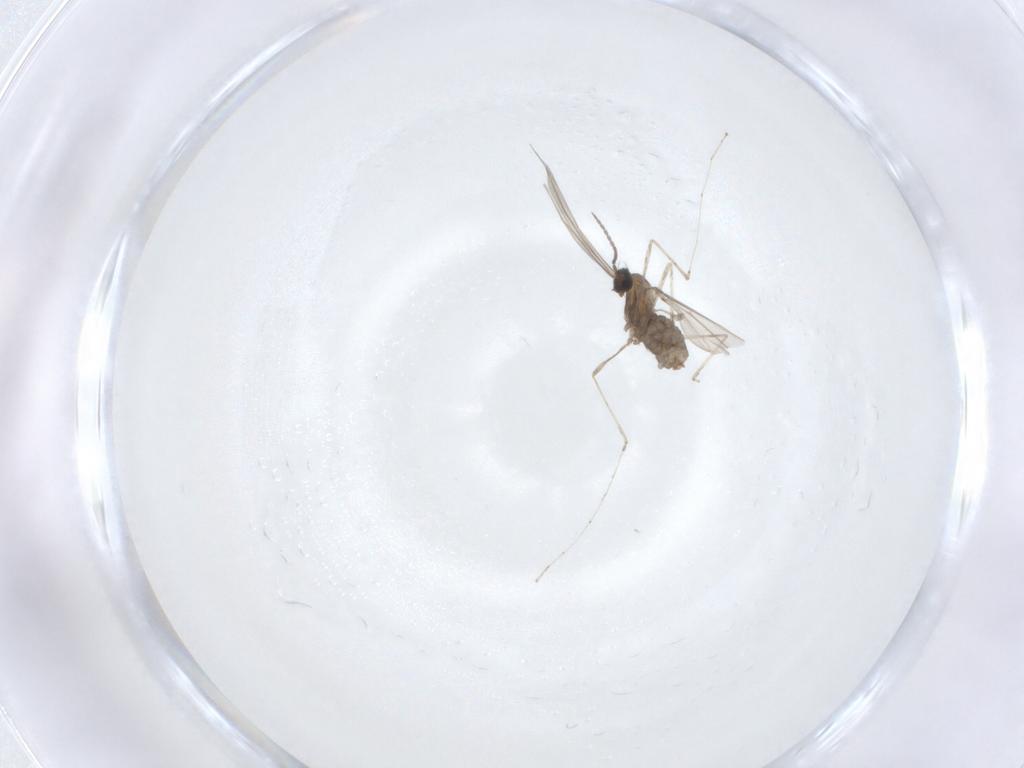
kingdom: Animalia
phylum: Arthropoda
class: Insecta
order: Diptera
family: Cecidomyiidae
